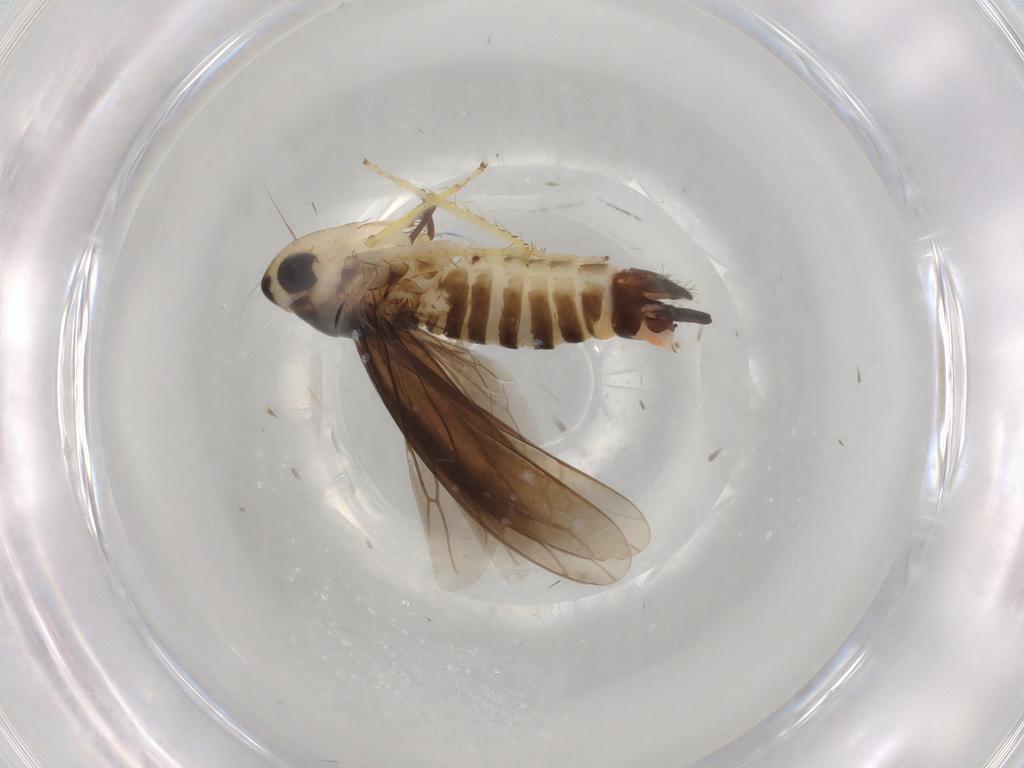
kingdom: Animalia
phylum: Arthropoda
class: Insecta
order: Hemiptera
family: Cicadellidae
